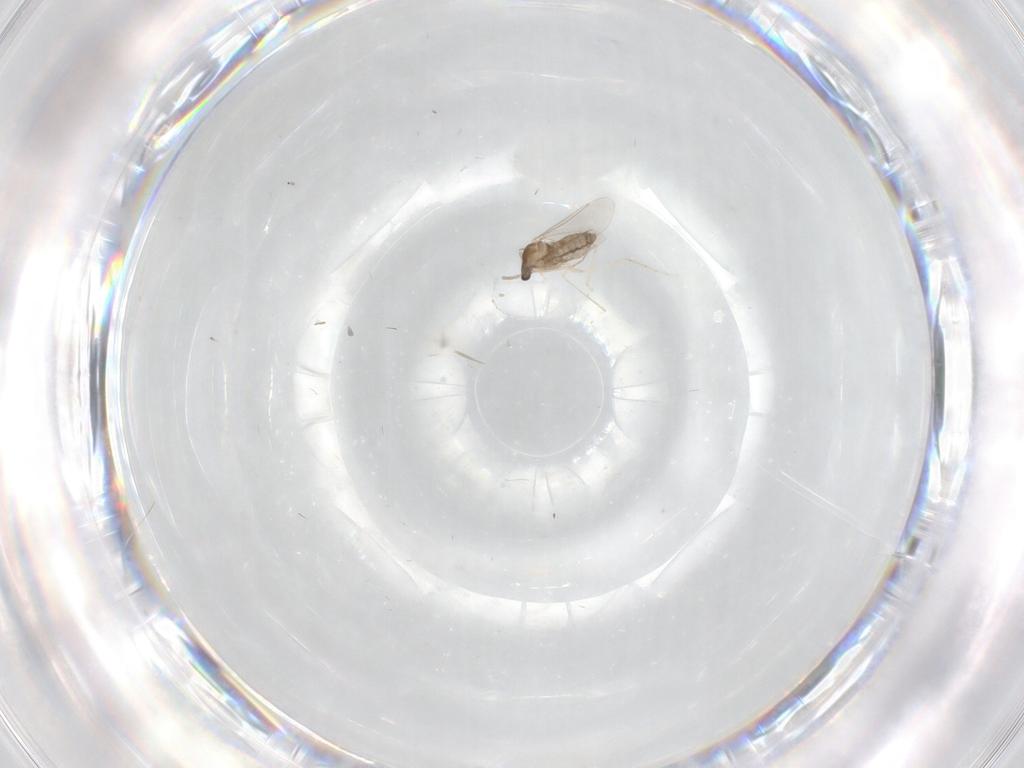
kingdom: Animalia
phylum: Arthropoda
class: Insecta
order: Diptera
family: Cecidomyiidae
